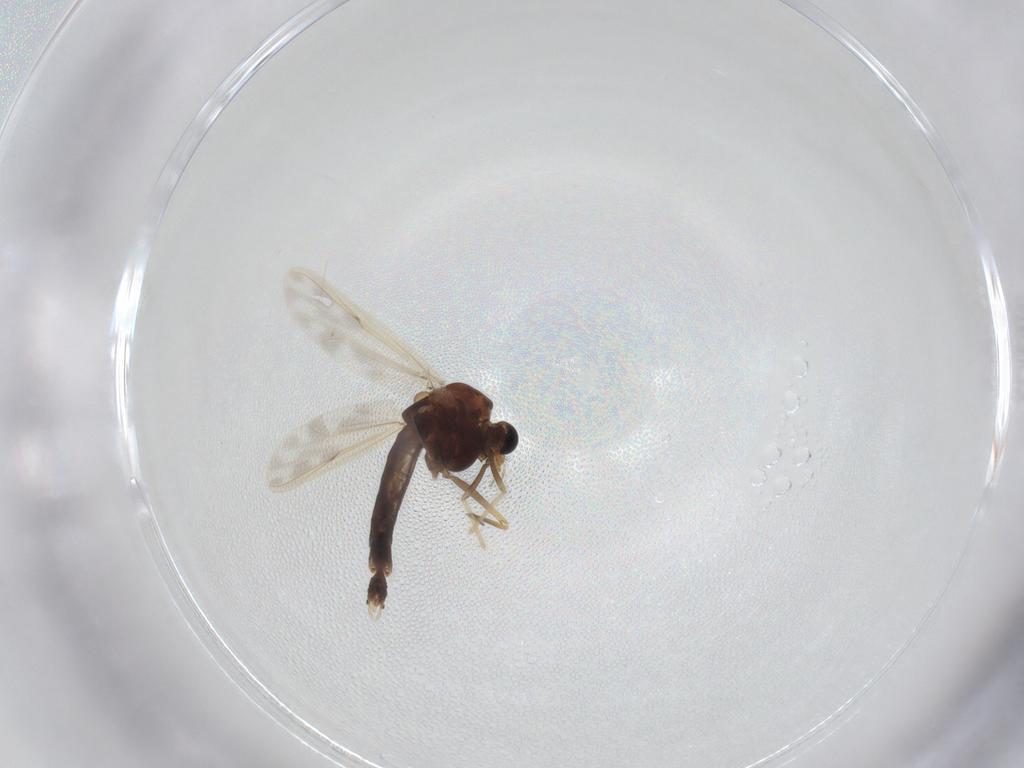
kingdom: Animalia
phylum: Arthropoda
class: Insecta
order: Diptera
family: Chironomidae
